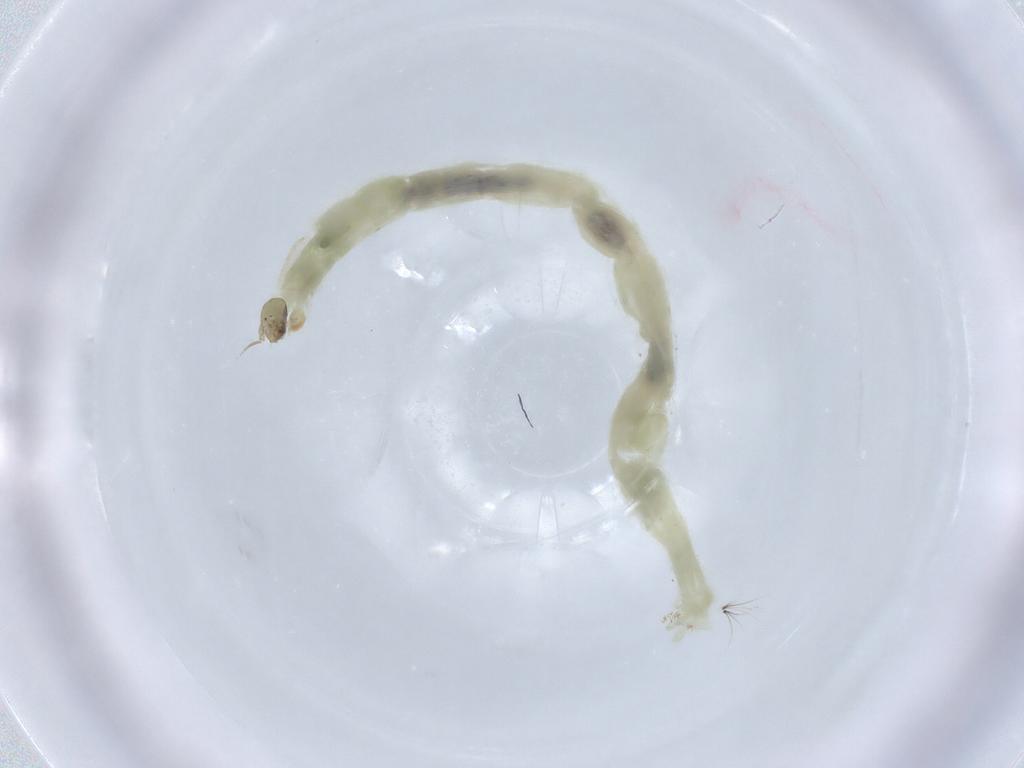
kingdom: Animalia
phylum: Arthropoda
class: Insecta
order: Diptera
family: Chironomidae
